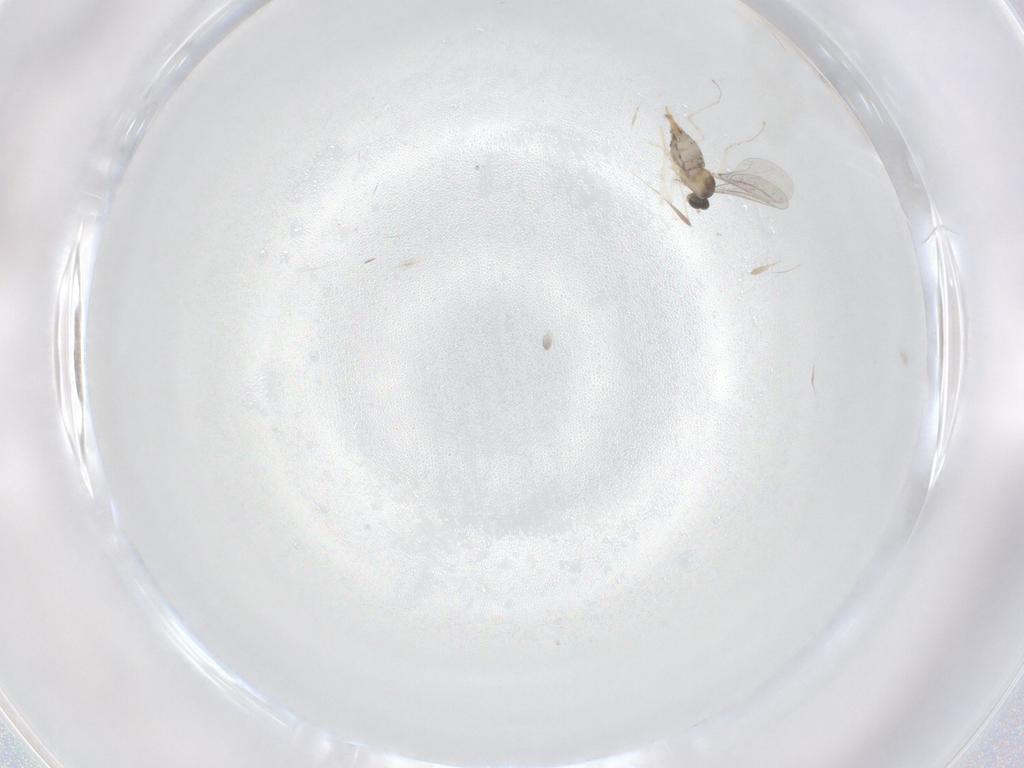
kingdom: Animalia
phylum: Arthropoda
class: Insecta
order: Diptera
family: Cecidomyiidae
